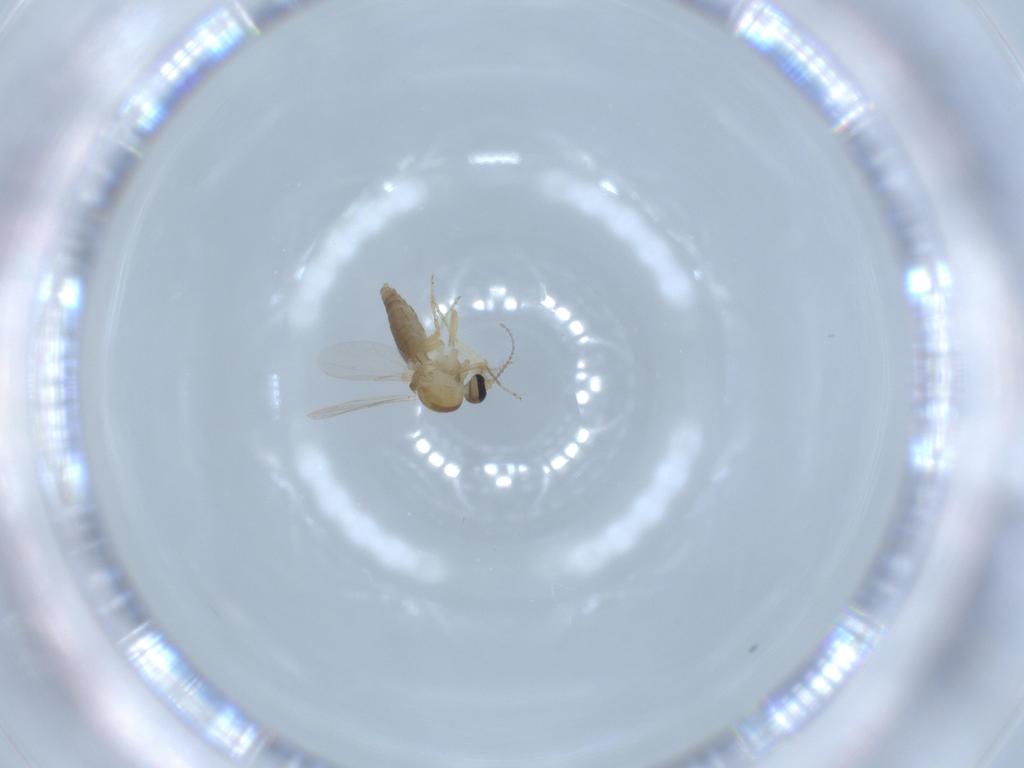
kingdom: Animalia
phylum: Arthropoda
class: Insecta
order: Diptera
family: Ceratopogonidae
